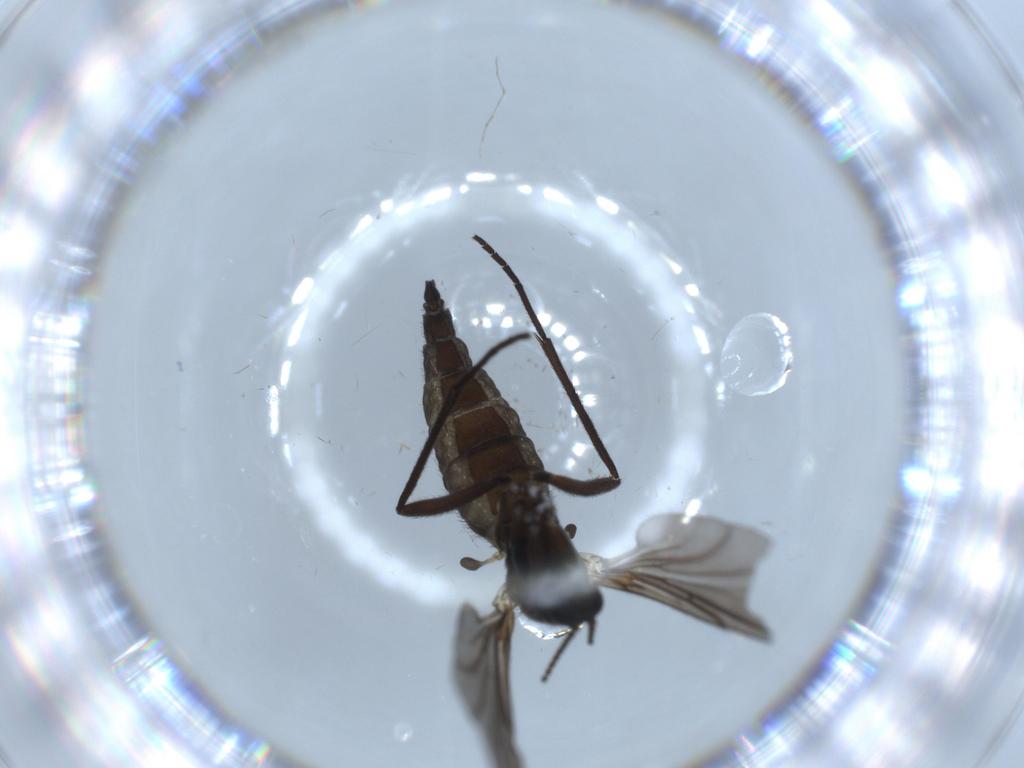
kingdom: Animalia
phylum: Arthropoda
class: Insecta
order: Diptera
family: Sciaridae
